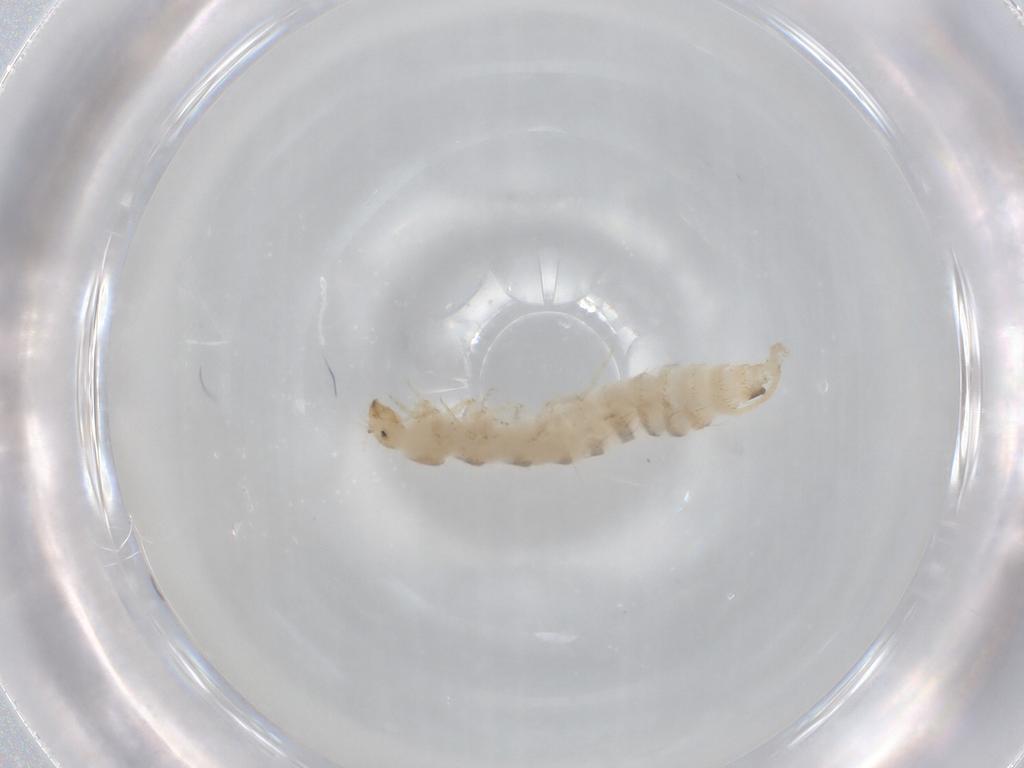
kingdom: Animalia
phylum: Arthropoda
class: Insecta
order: Coleoptera
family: Staphylinidae
